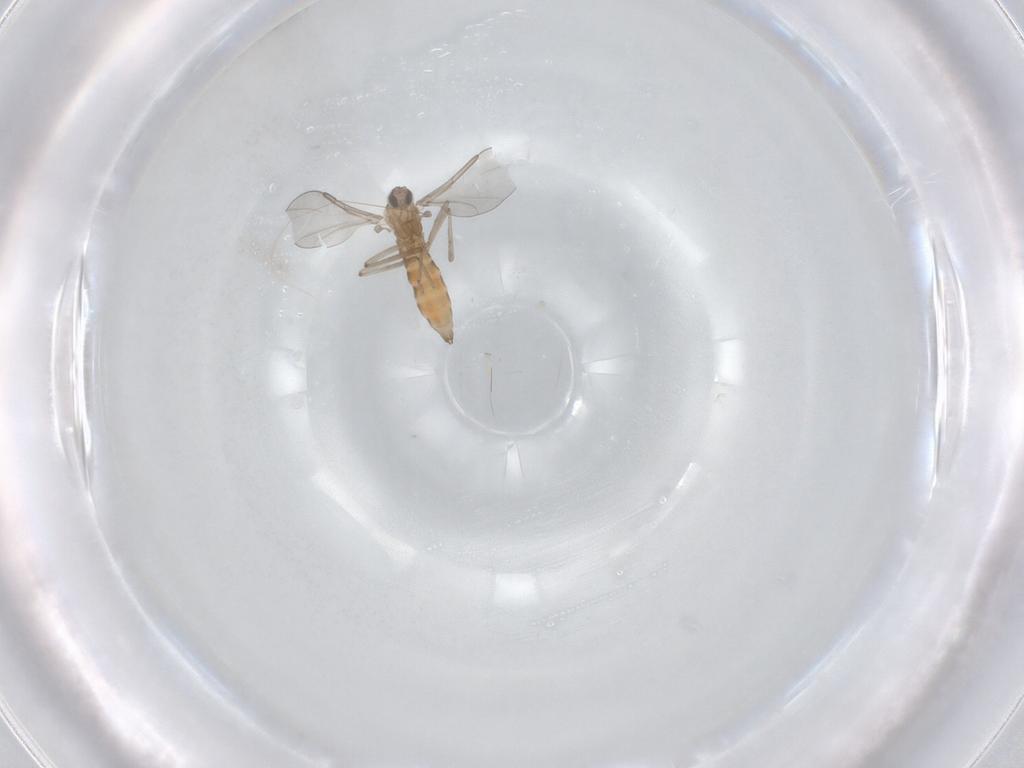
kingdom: Animalia
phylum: Arthropoda
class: Insecta
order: Diptera
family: Cecidomyiidae
